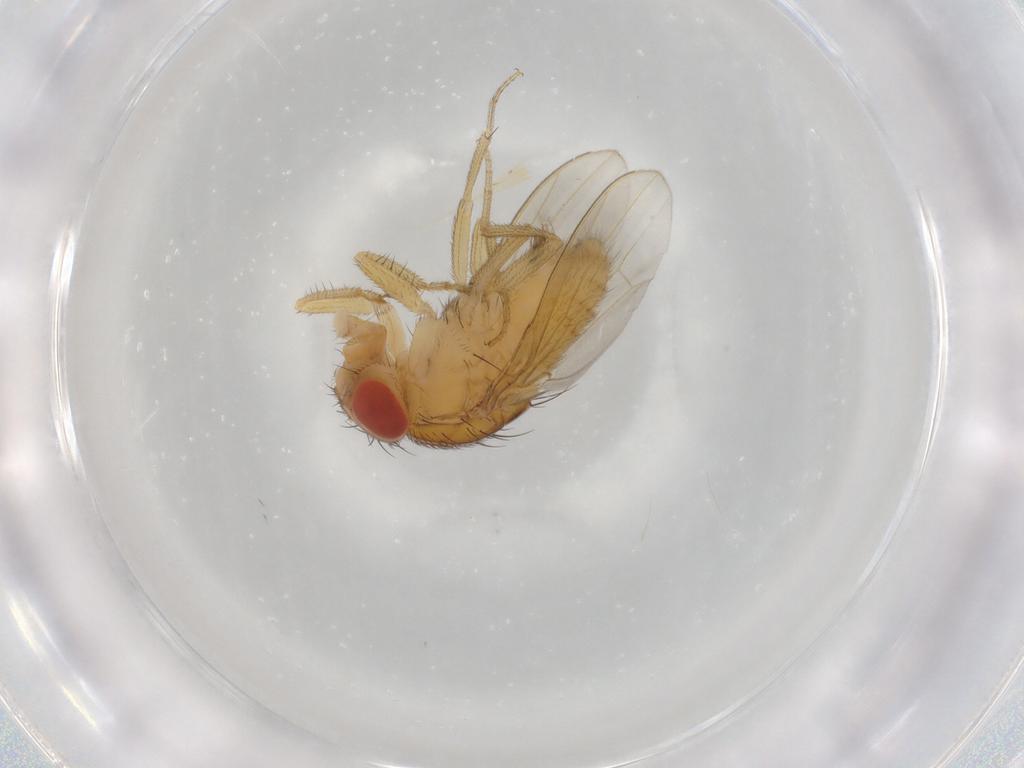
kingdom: Animalia
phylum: Arthropoda
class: Insecta
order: Diptera
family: Drosophilidae
